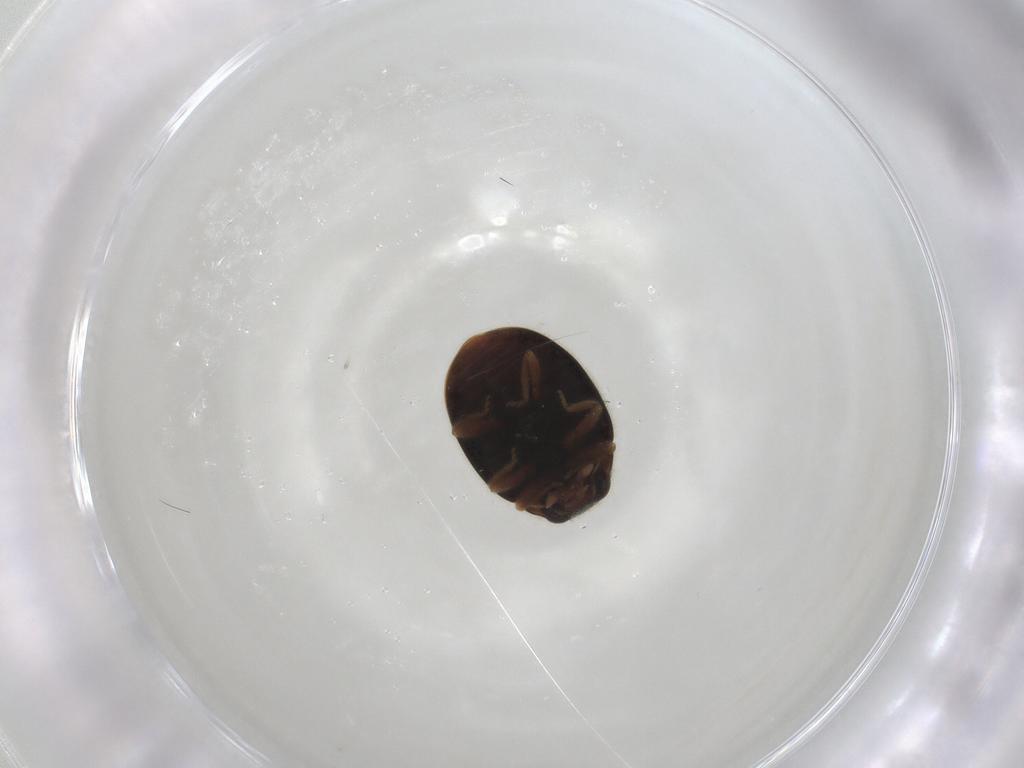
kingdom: Animalia
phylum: Arthropoda
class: Insecta
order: Coleoptera
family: Coccinellidae
